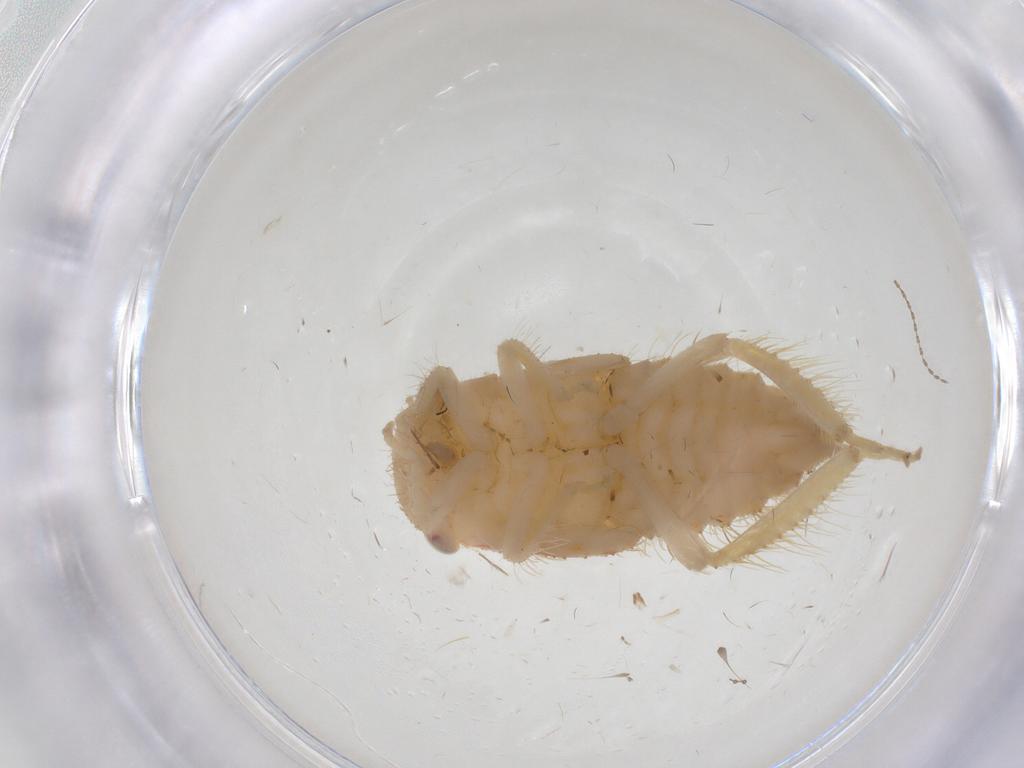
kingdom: Animalia
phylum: Arthropoda
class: Insecta
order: Hemiptera
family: Cicadellidae
